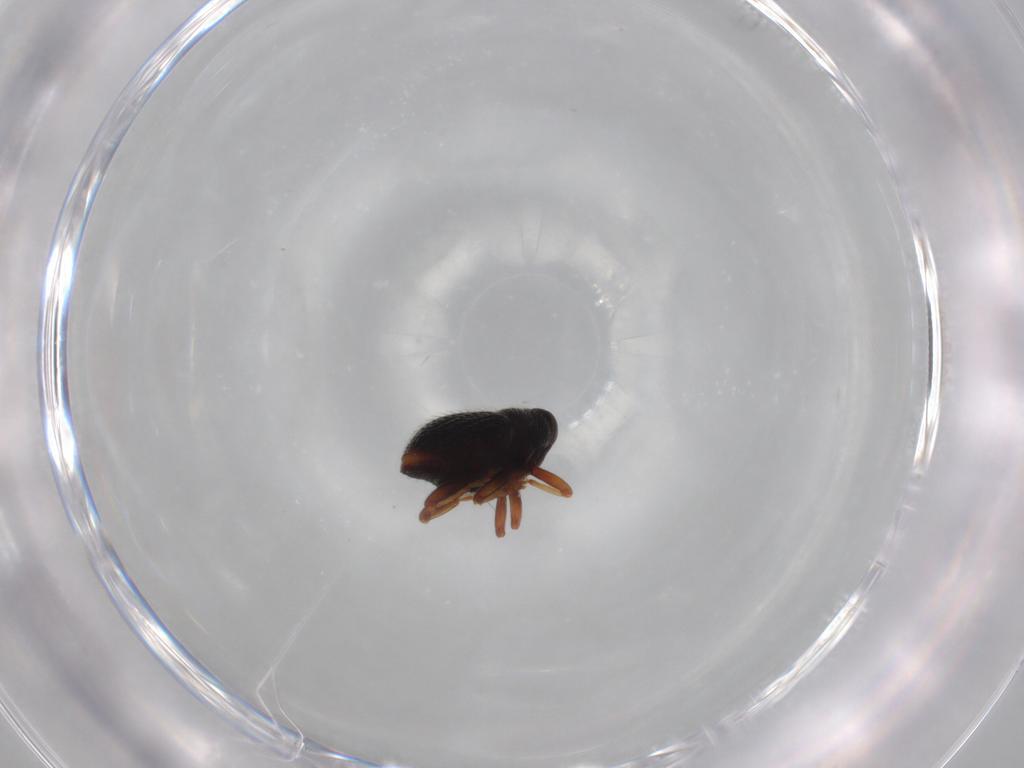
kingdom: Animalia
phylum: Arthropoda
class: Insecta
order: Coleoptera
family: Curculionidae
